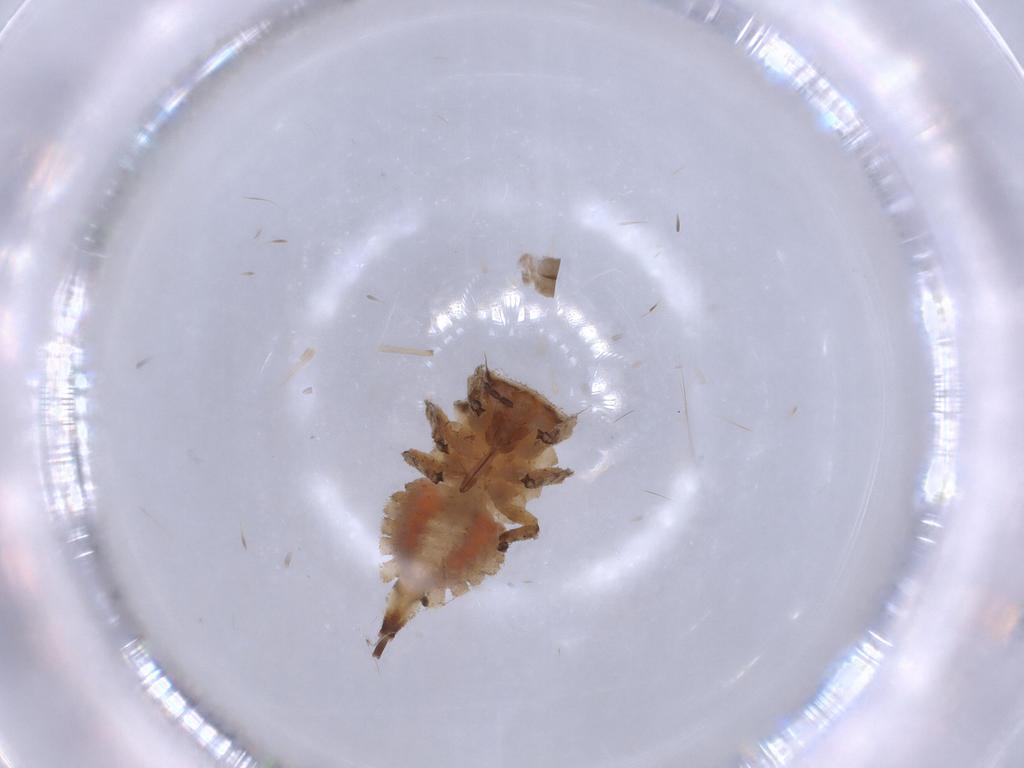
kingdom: Animalia
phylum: Arthropoda
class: Insecta
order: Hemiptera
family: Membracidae
